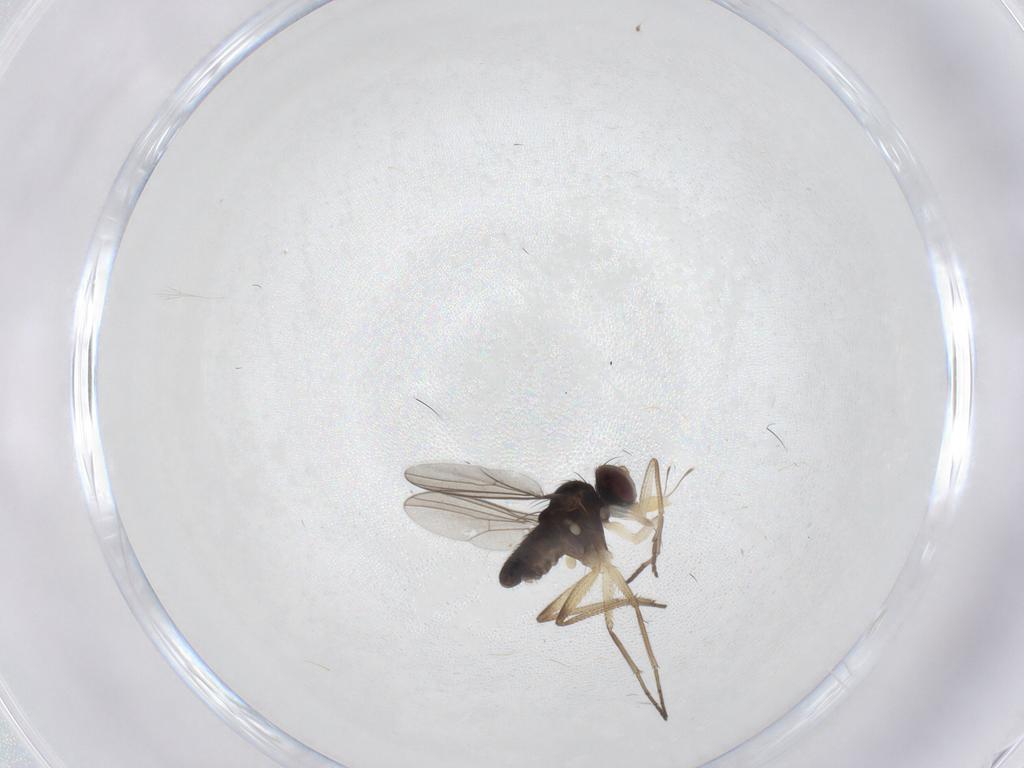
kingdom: Animalia
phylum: Arthropoda
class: Insecta
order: Diptera
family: Dolichopodidae
